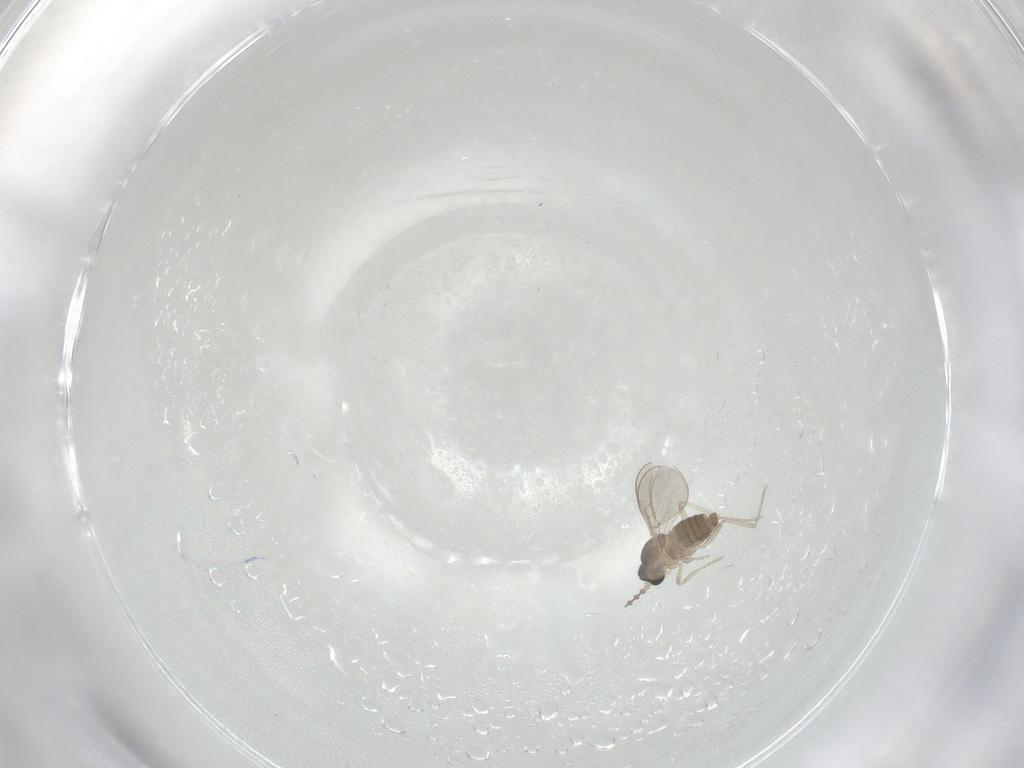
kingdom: Animalia
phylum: Arthropoda
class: Insecta
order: Diptera
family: Cecidomyiidae
